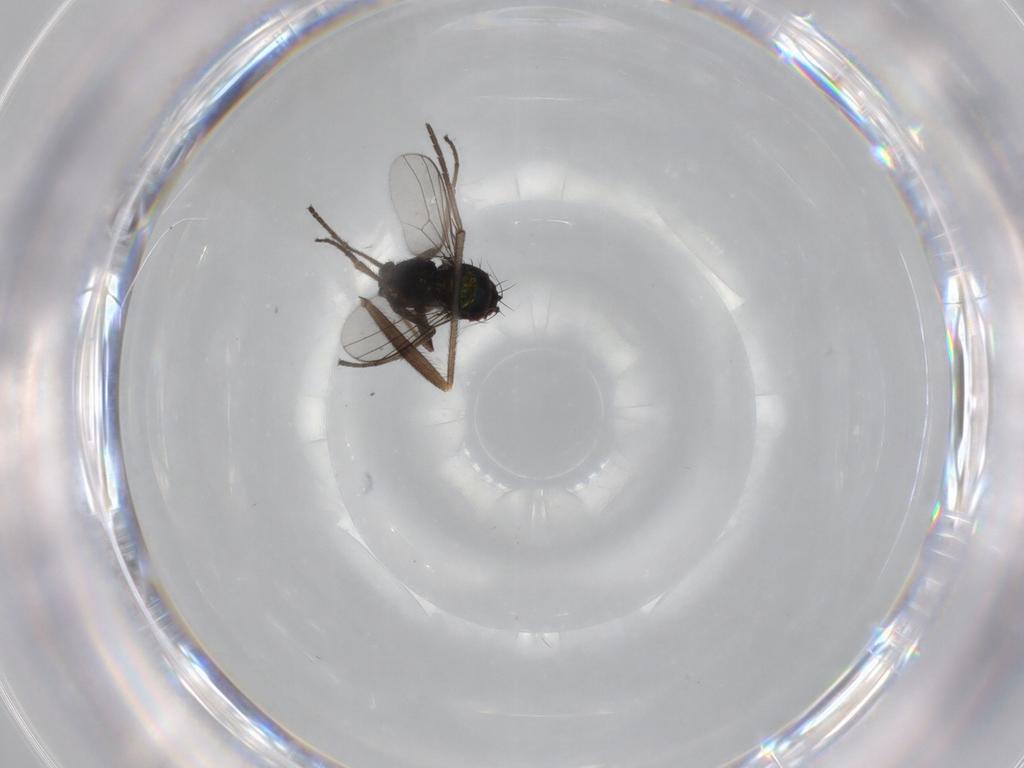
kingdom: Animalia
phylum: Arthropoda
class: Insecta
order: Diptera
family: Dolichopodidae
